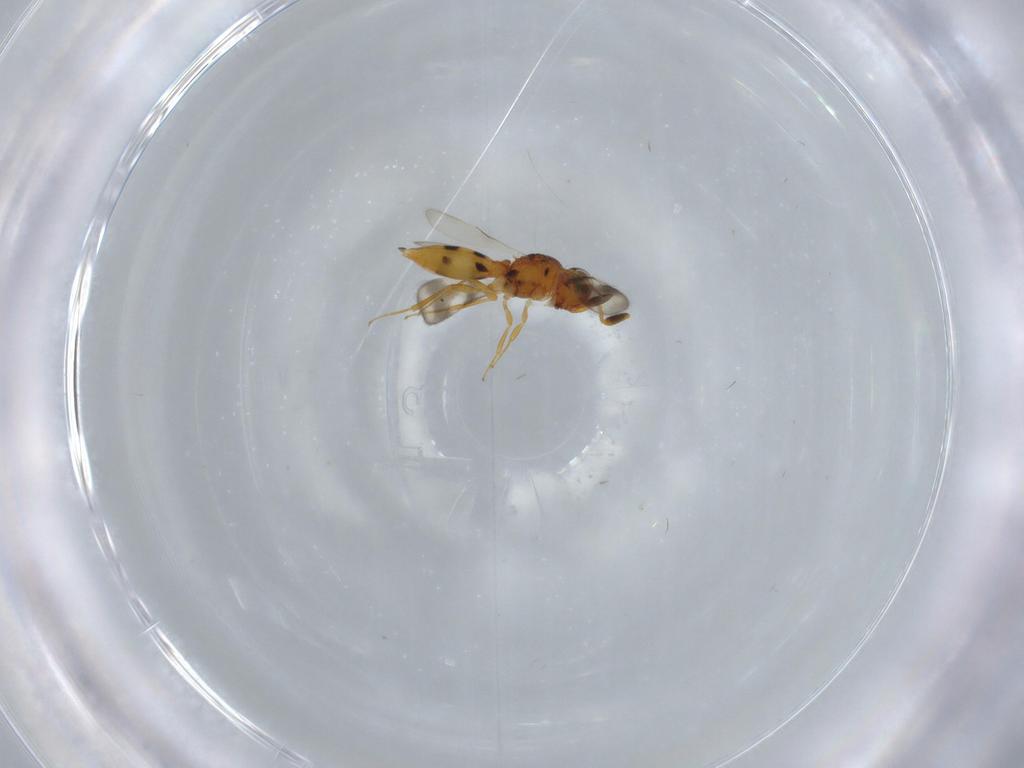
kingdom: Animalia
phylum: Arthropoda
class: Insecta
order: Hymenoptera
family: Scelionidae
